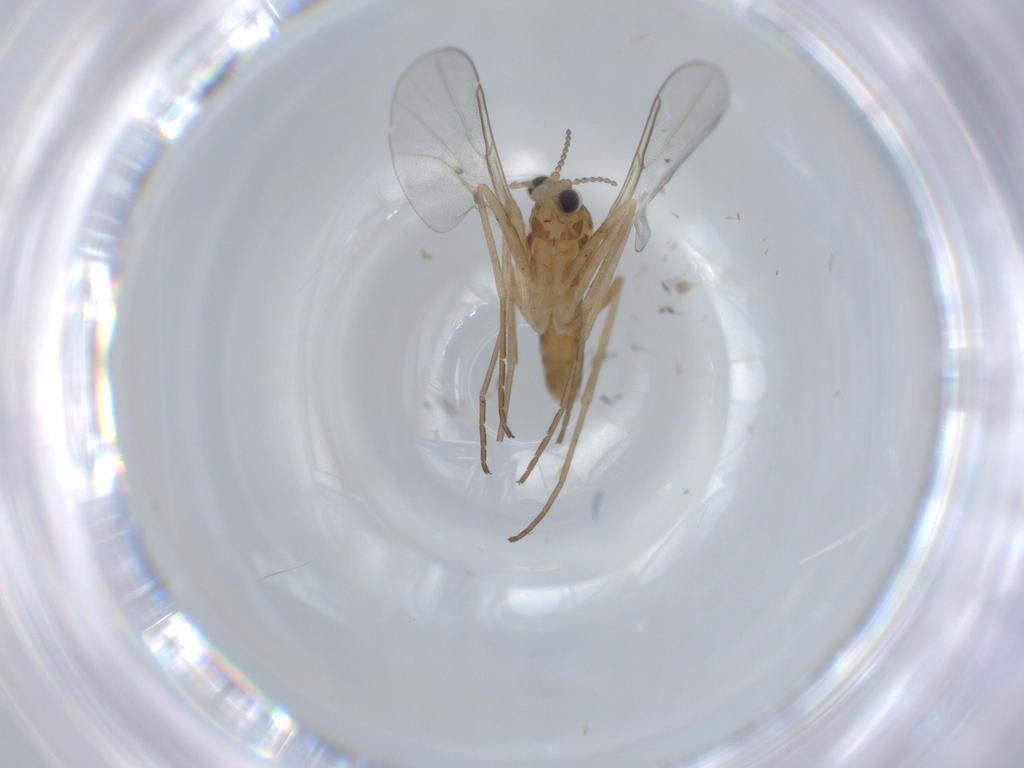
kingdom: Animalia
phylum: Arthropoda
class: Insecta
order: Diptera
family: Cecidomyiidae
